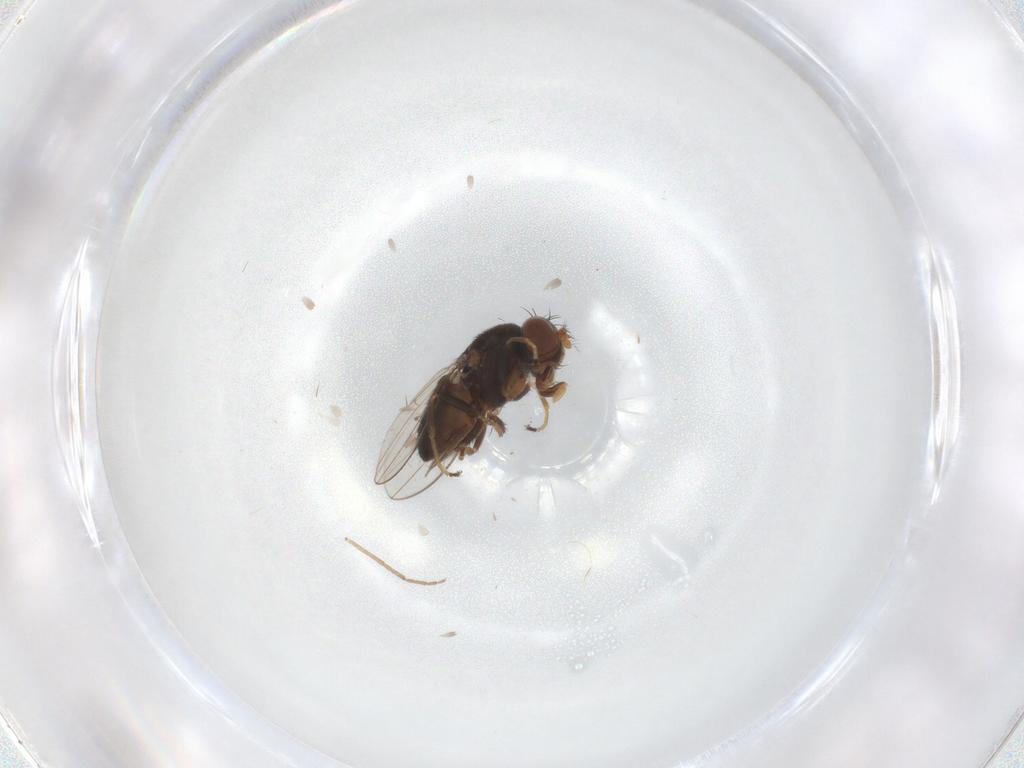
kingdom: Animalia
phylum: Arthropoda
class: Insecta
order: Diptera
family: Ephydridae
